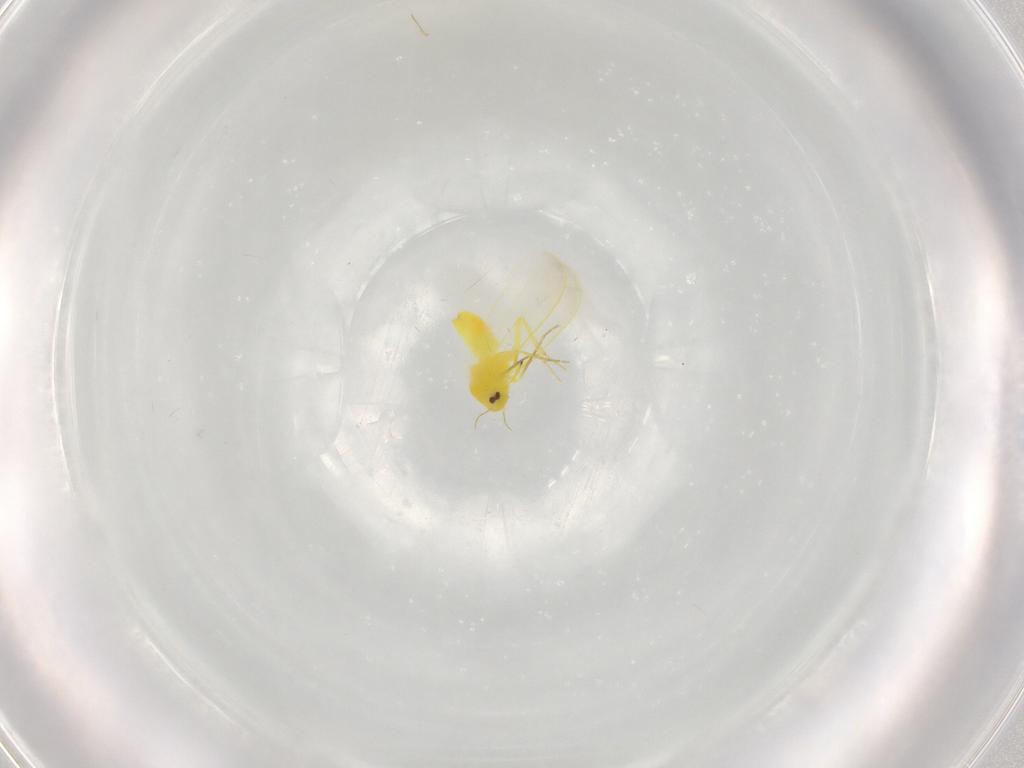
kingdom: Animalia
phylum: Arthropoda
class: Insecta
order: Hemiptera
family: Aleyrodidae
